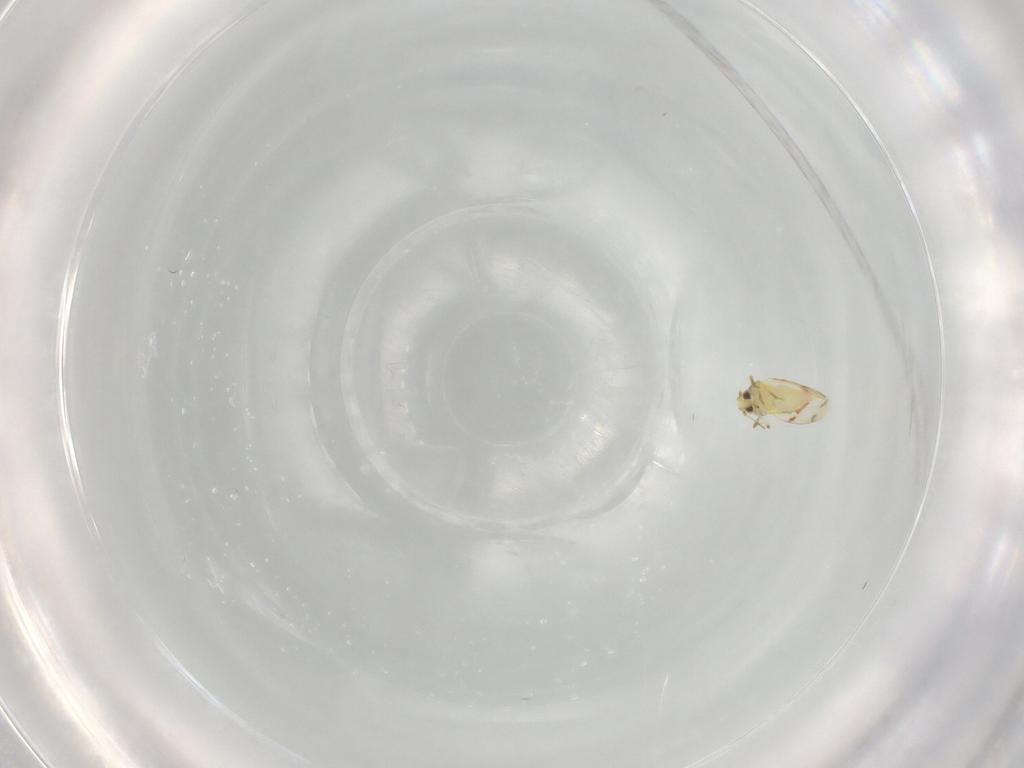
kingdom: Animalia
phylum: Arthropoda
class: Insecta
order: Hemiptera
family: Aleyrodidae
